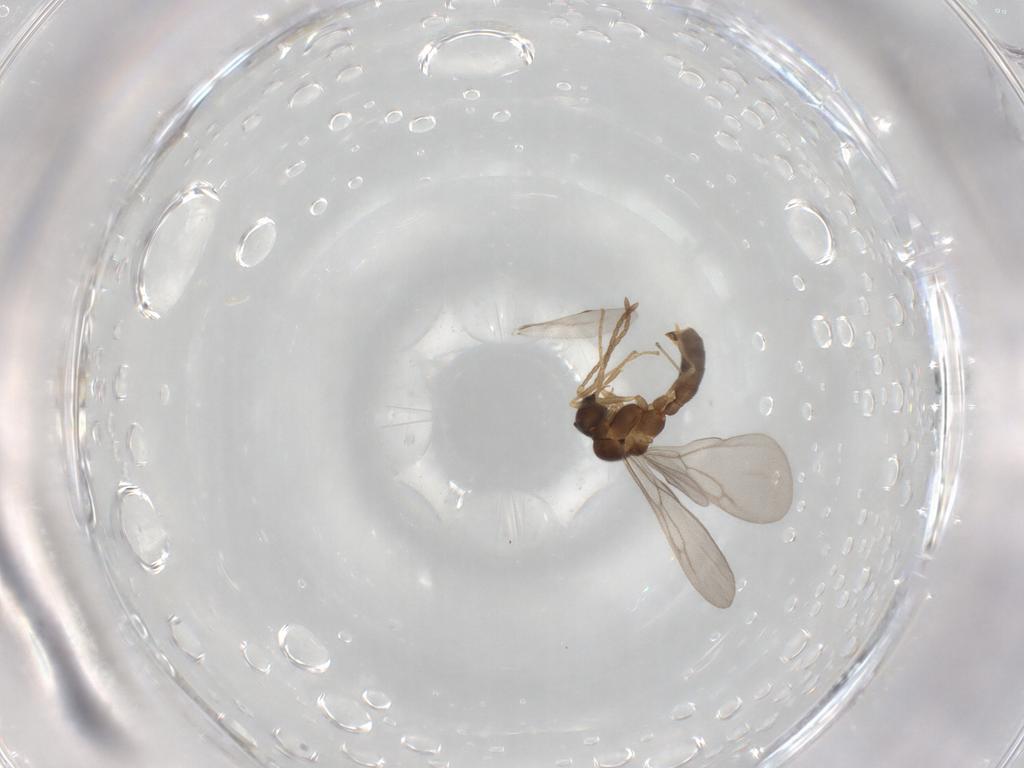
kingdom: Animalia
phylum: Arthropoda
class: Insecta
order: Hymenoptera
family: Formicidae
